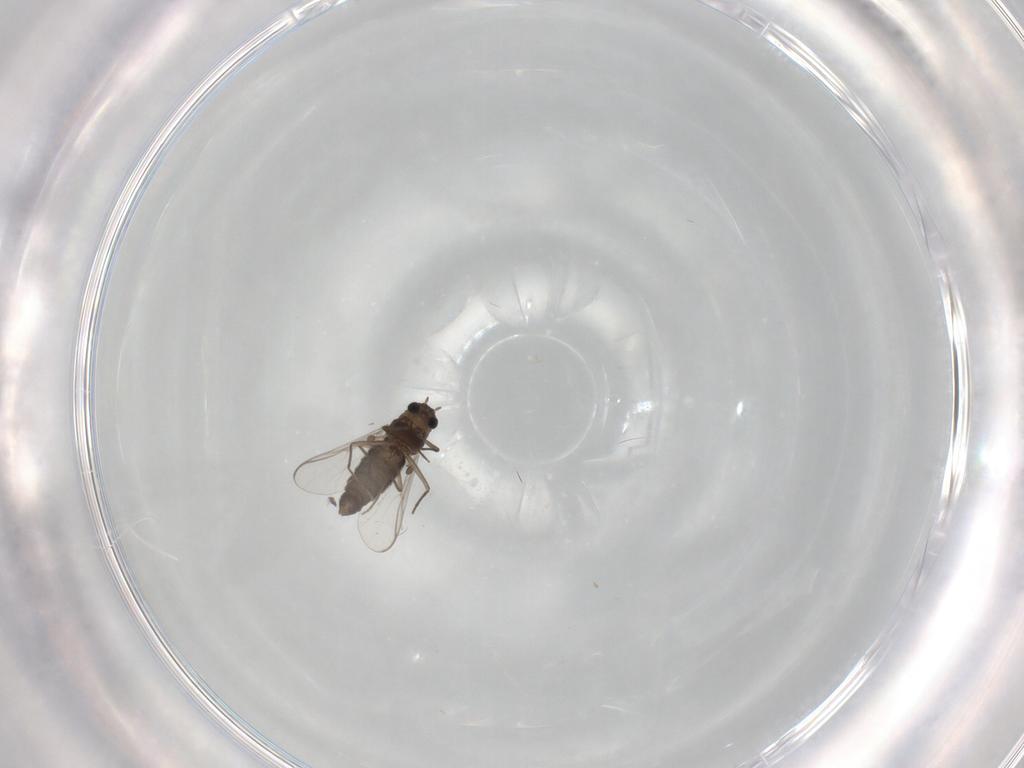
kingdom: Animalia
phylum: Arthropoda
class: Insecta
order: Diptera
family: Chironomidae
